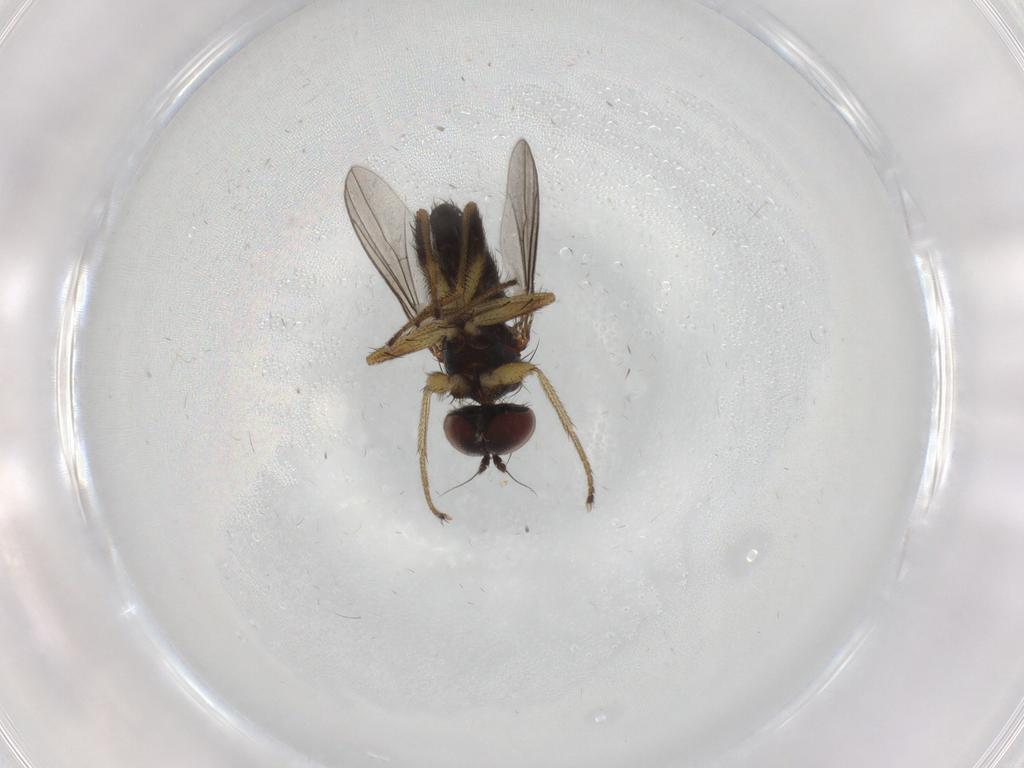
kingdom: Animalia
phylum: Arthropoda
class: Insecta
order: Diptera
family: Dolichopodidae
